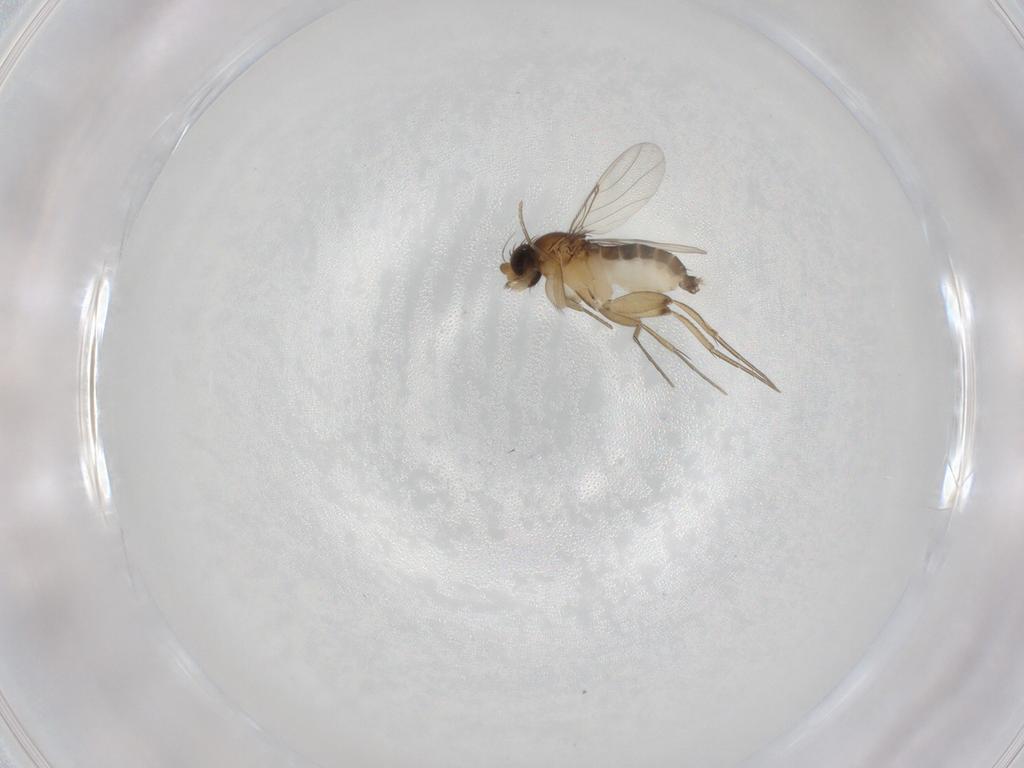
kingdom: Animalia
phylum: Arthropoda
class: Insecta
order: Diptera
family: Phoridae
